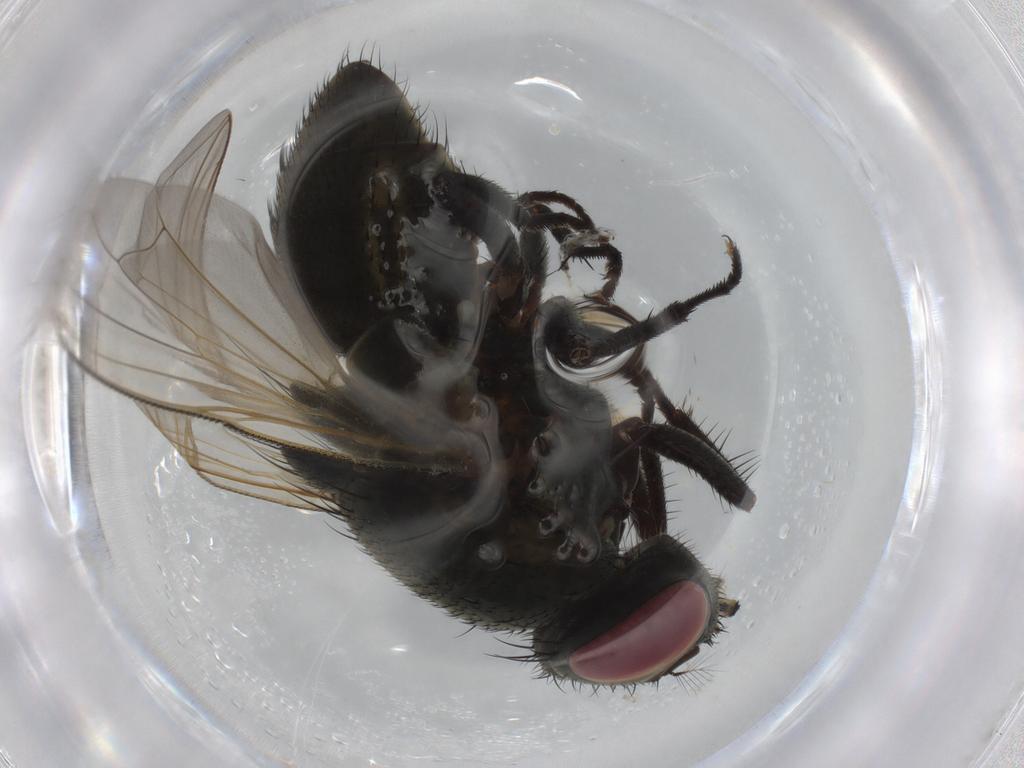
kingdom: Animalia
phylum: Arthropoda
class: Insecta
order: Diptera
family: Muscidae
